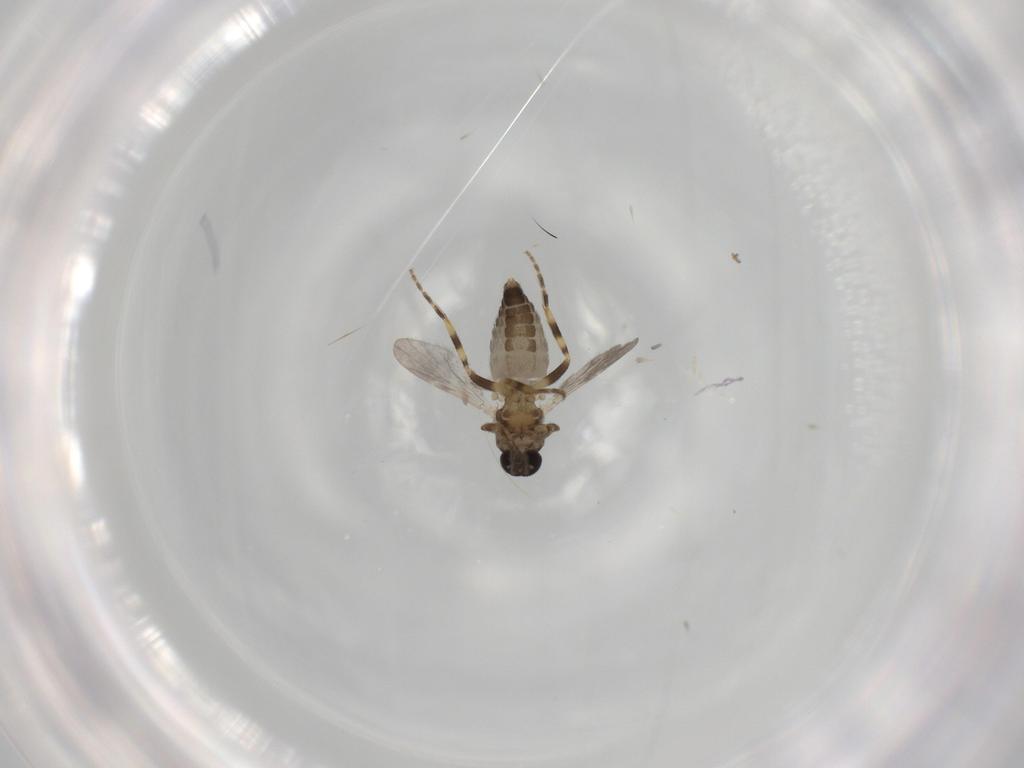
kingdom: Animalia
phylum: Arthropoda
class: Insecta
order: Diptera
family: Chironomidae
